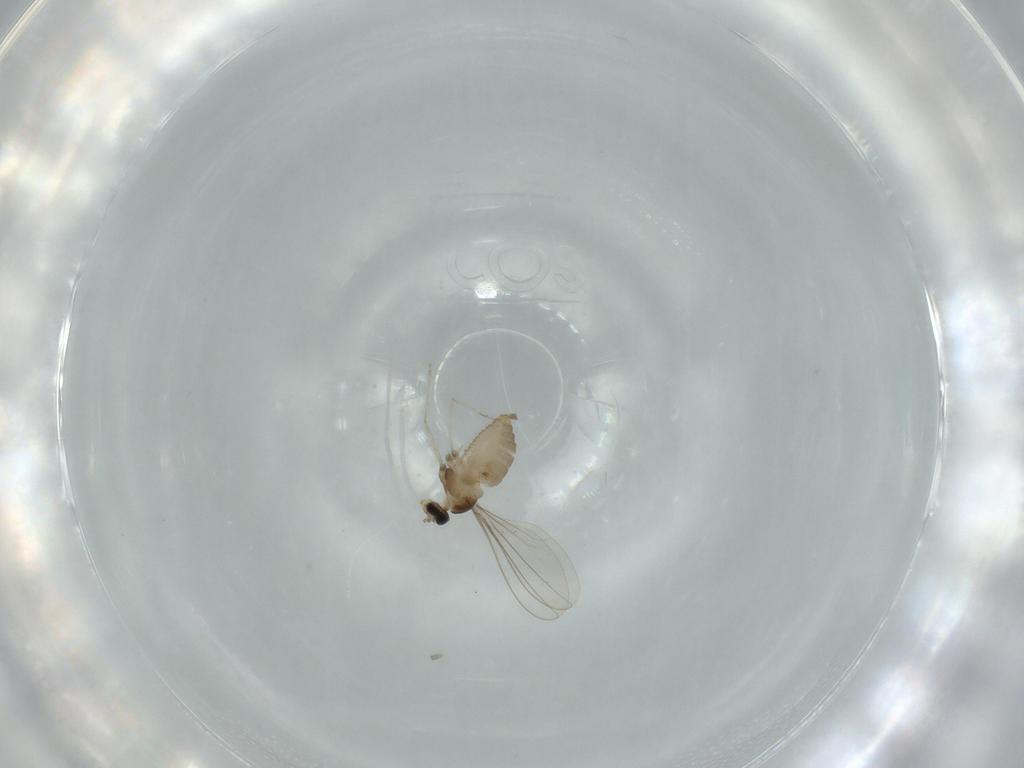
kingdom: Animalia
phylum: Arthropoda
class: Insecta
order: Diptera
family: Cecidomyiidae
